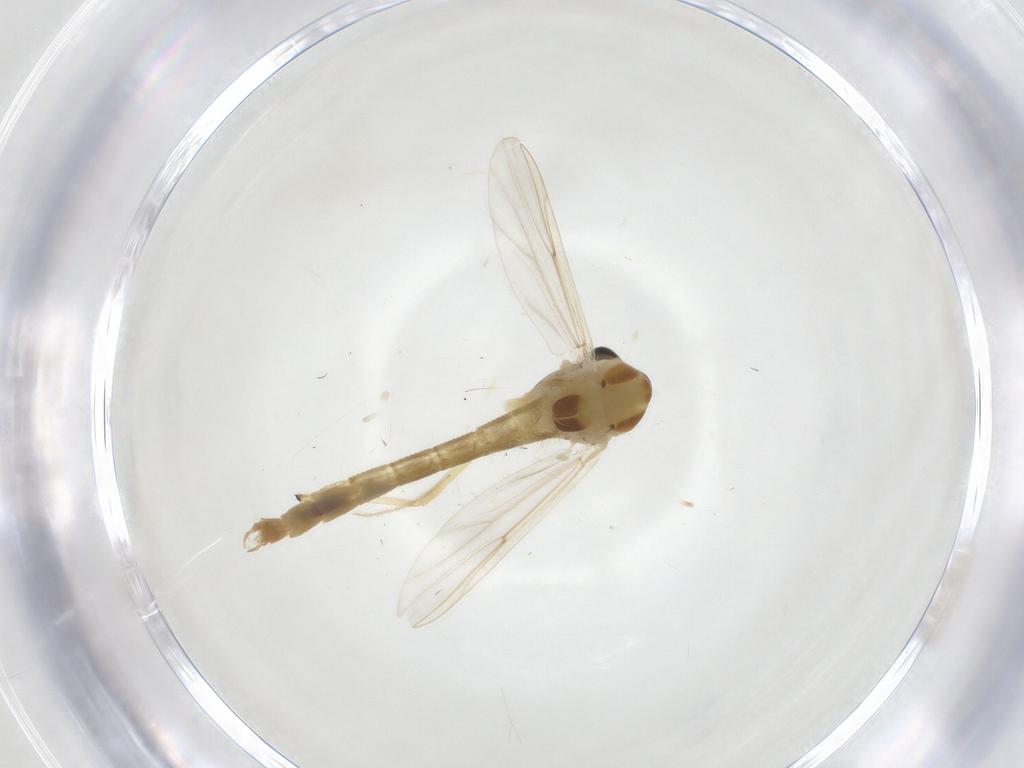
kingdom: Animalia
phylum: Arthropoda
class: Insecta
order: Diptera
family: Chironomidae
